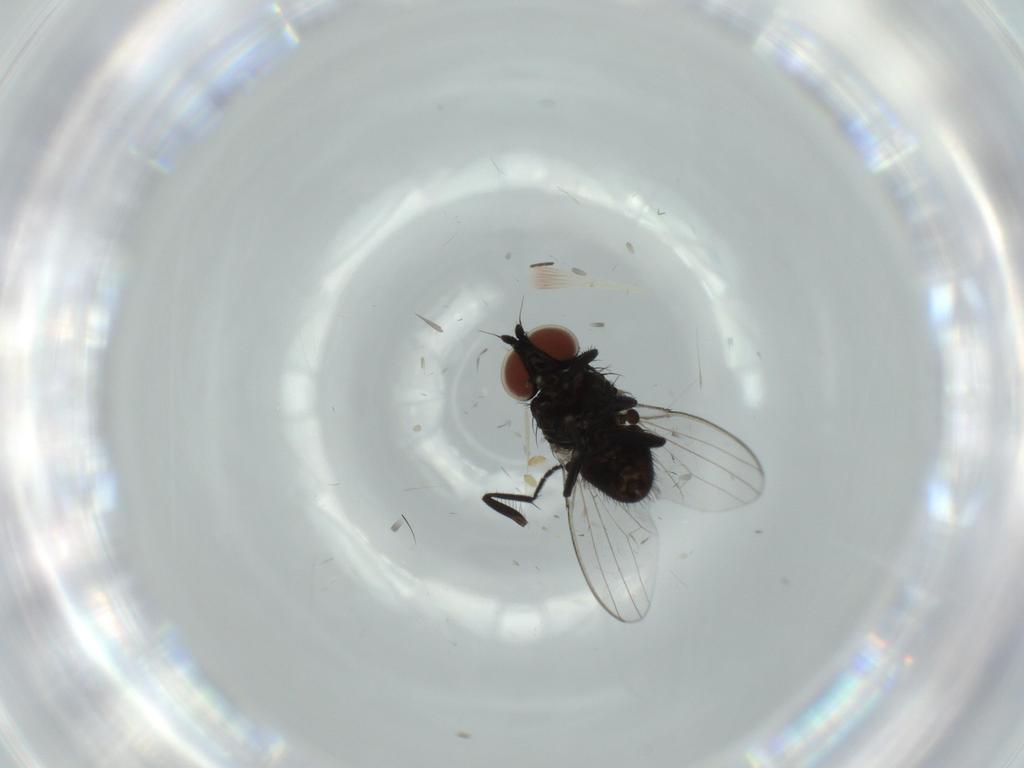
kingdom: Animalia
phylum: Arthropoda
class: Insecta
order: Diptera
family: Milichiidae
